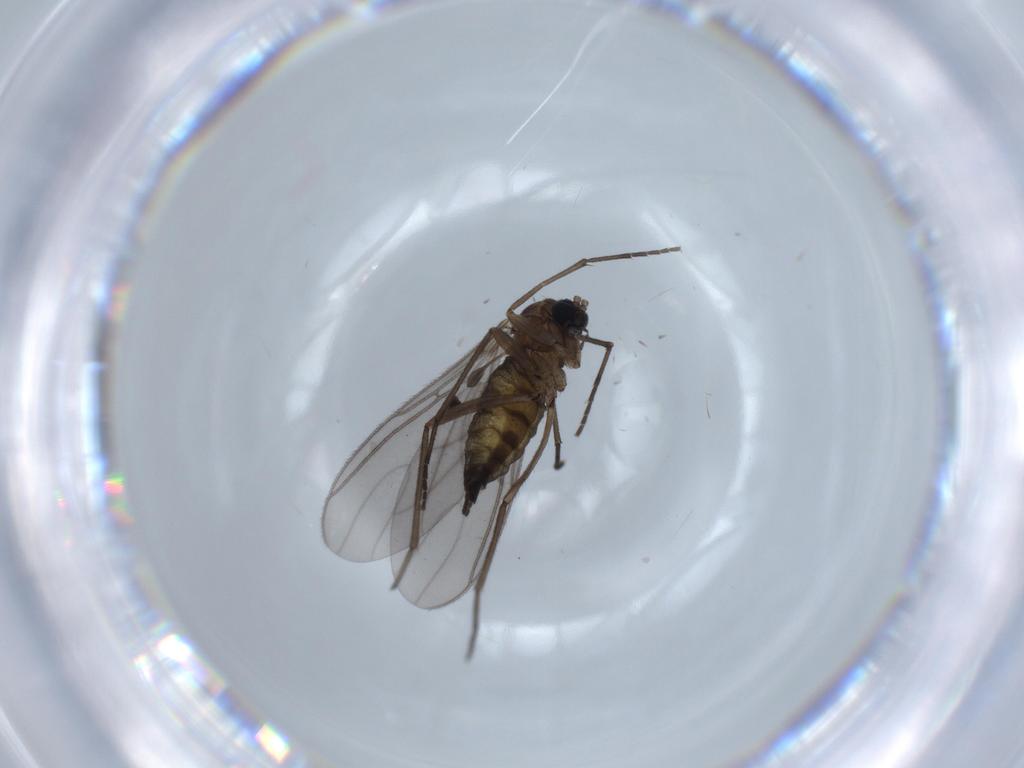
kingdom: Animalia
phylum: Arthropoda
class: Insecta
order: Diptera
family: Sciaridae
